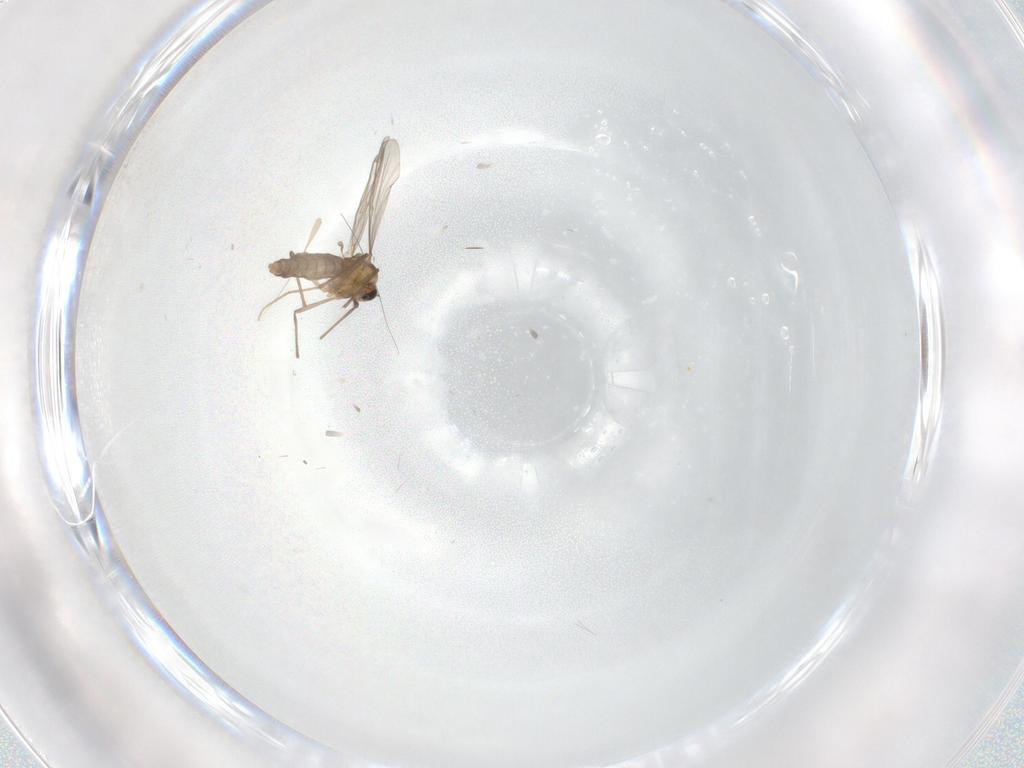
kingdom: Animalia
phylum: Arthropoda
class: Insecta
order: Diptera
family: Ceratopogonidae
